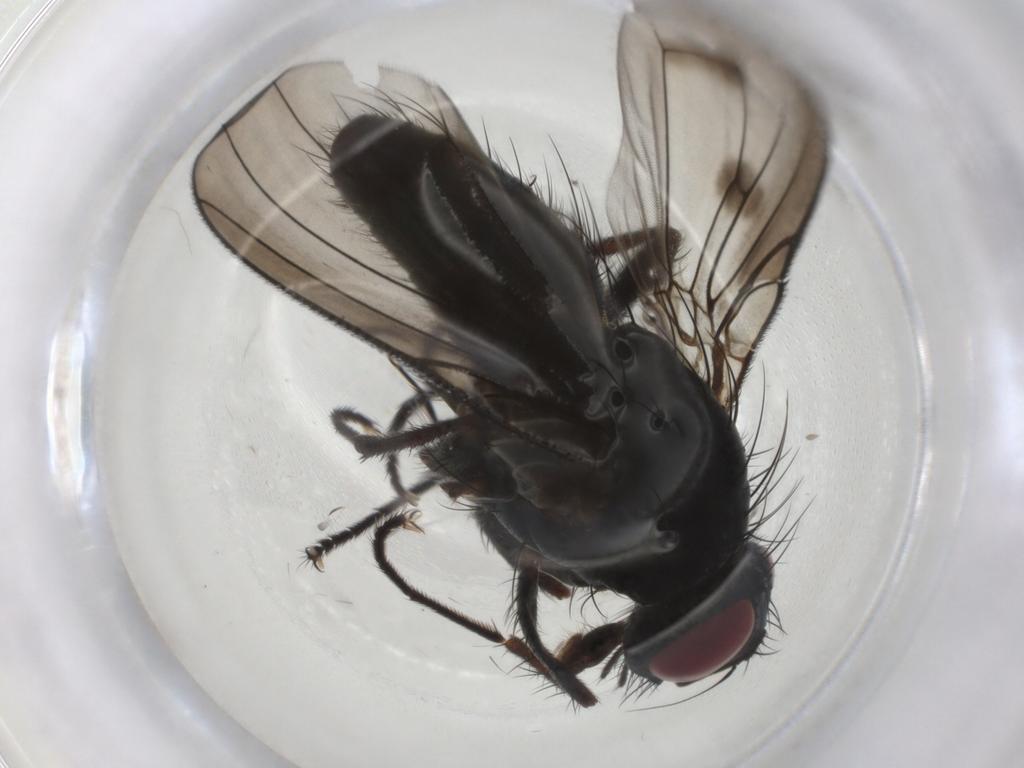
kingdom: Animalia
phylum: Arthropoda
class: Insecta
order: Diptera
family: Muscidae
